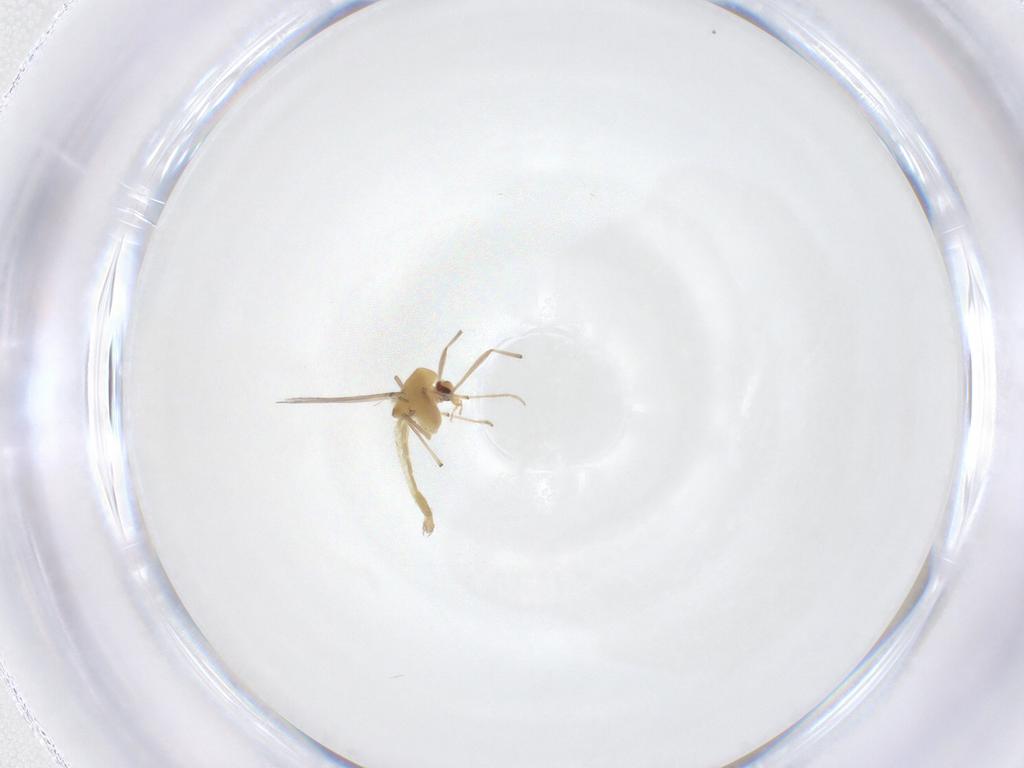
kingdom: Animalia
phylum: Arthropoda
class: Insecta
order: Diptera
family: Chironomidae
